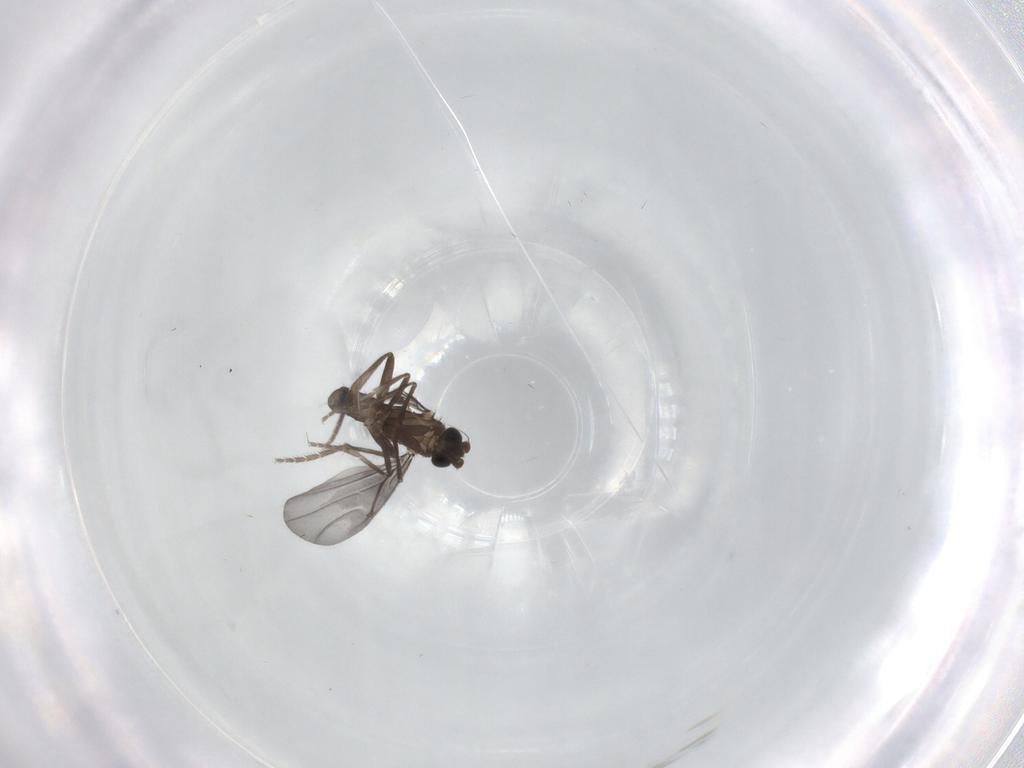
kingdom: Animalia
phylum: Arthropoda
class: Insecta
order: Diptera
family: Phoridae
